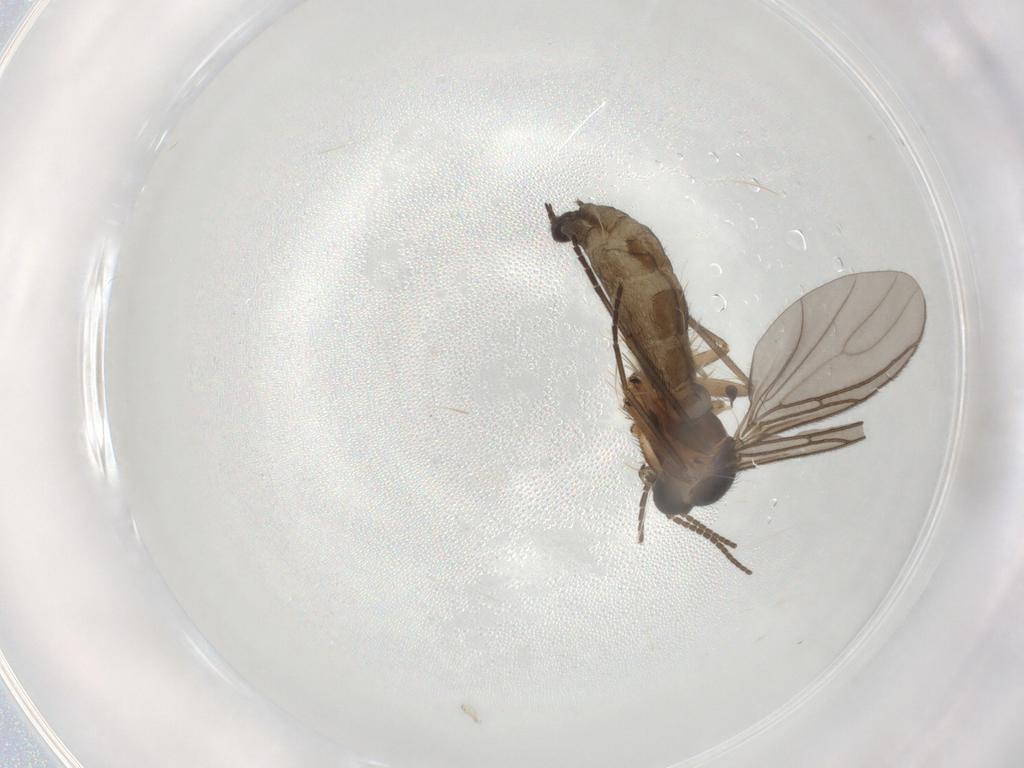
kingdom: Animalia
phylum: Arthropoda
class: Insecta
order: Diptera
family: Sciaridae
